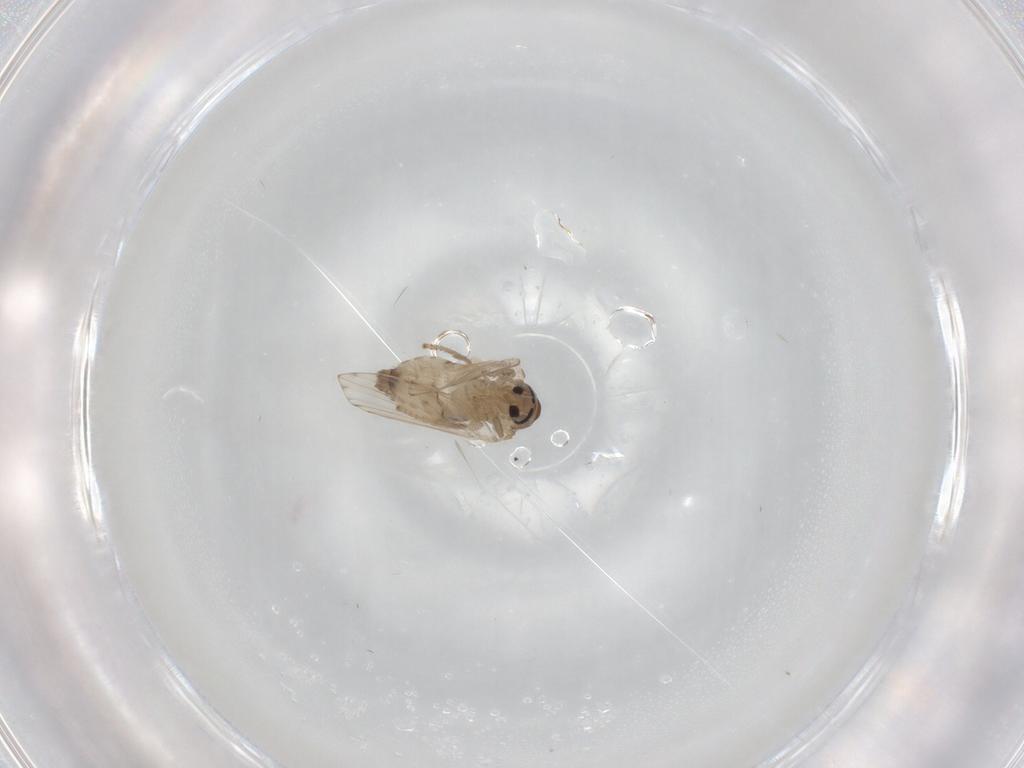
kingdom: Animalia
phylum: Arthropoda
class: Insecta
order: Diptera
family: Psychodidae
